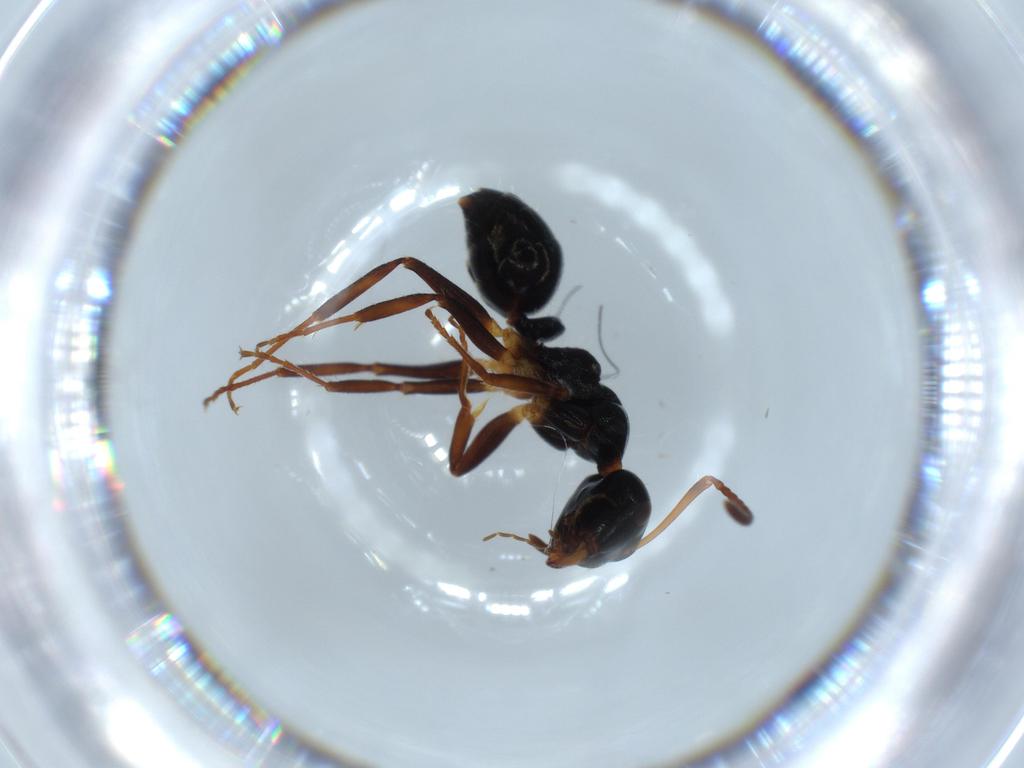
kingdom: Animalia
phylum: Arthropoda
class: Insecta
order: Hymenoptera
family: Formicidae
